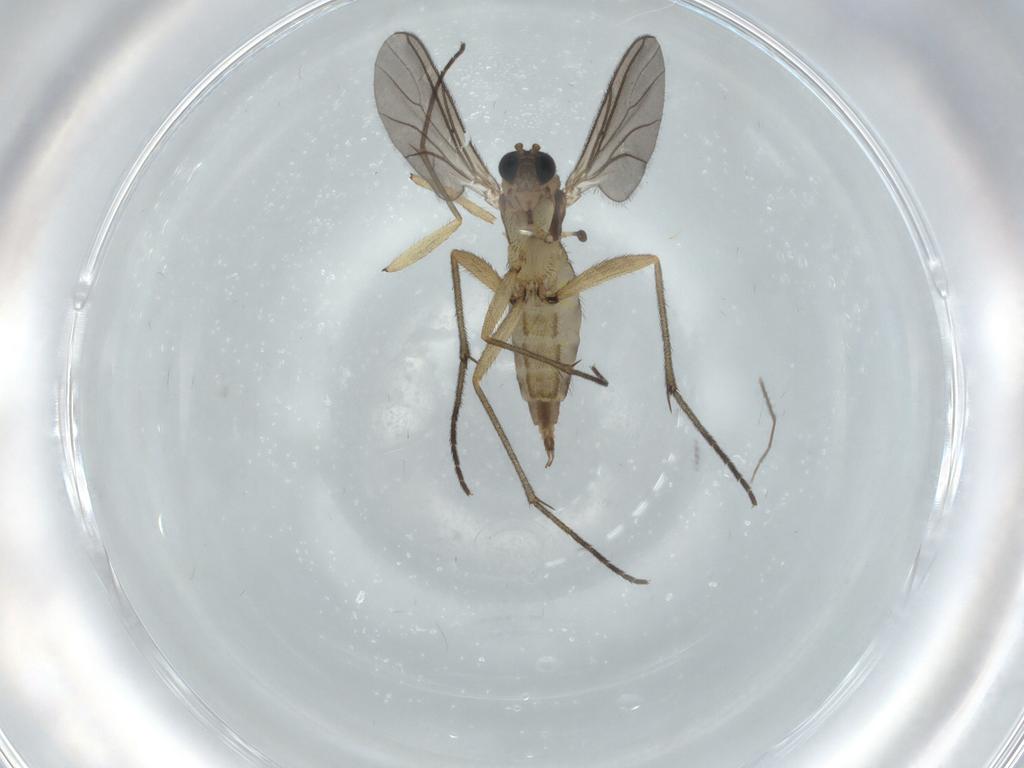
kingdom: Animalia
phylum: Arthropoda
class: Insecta
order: Diptera
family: Sciaridae
